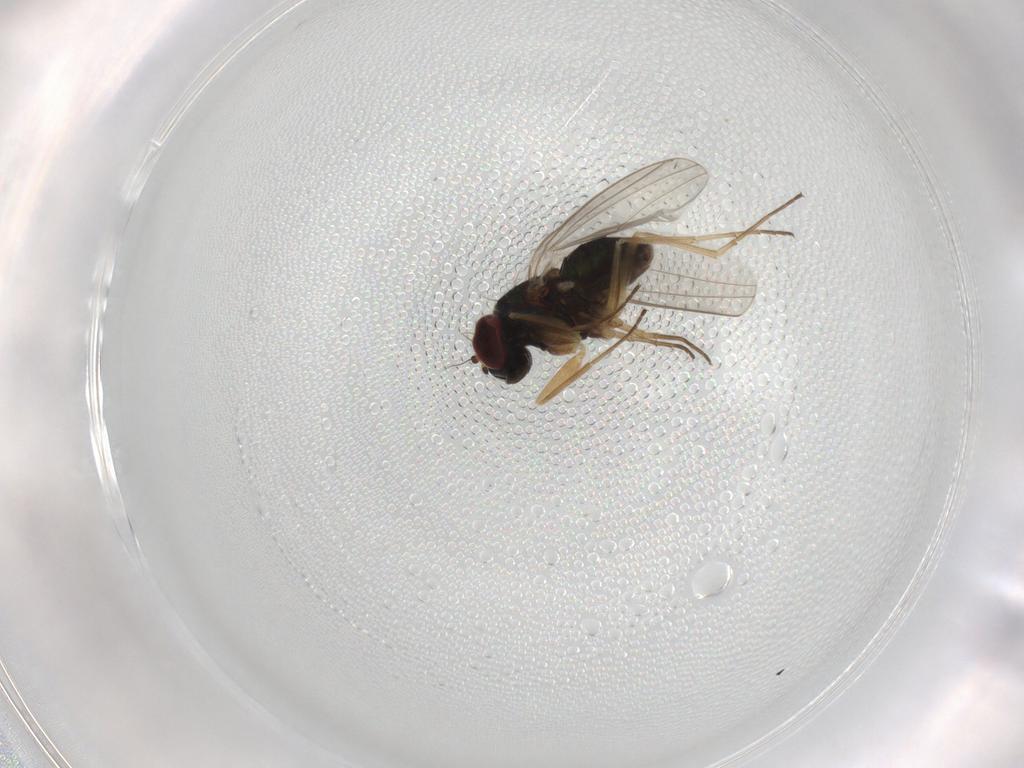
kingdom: Animalia
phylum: Arthropoda
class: Insecta
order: Diptera
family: Dolichopodidae
